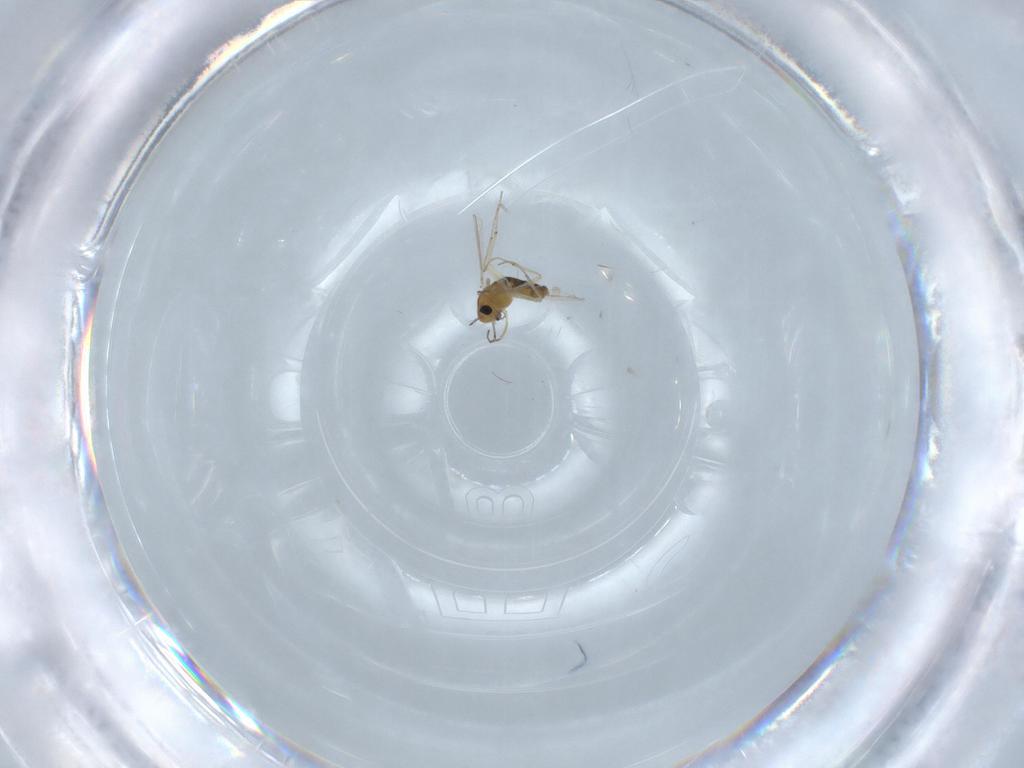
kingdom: Animalia
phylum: Arthropoda
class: Insecta
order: Diptera
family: Chironomidae
